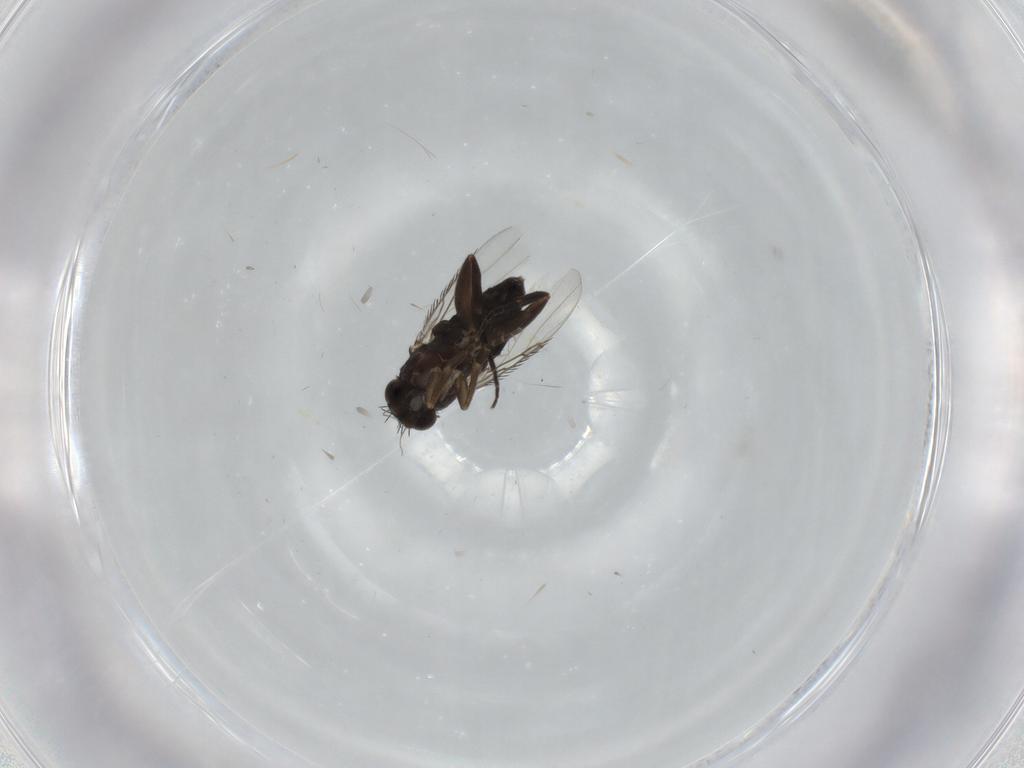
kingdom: Animalia
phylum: Arthropoda
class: Insecta
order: Diptera
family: Phoridae
